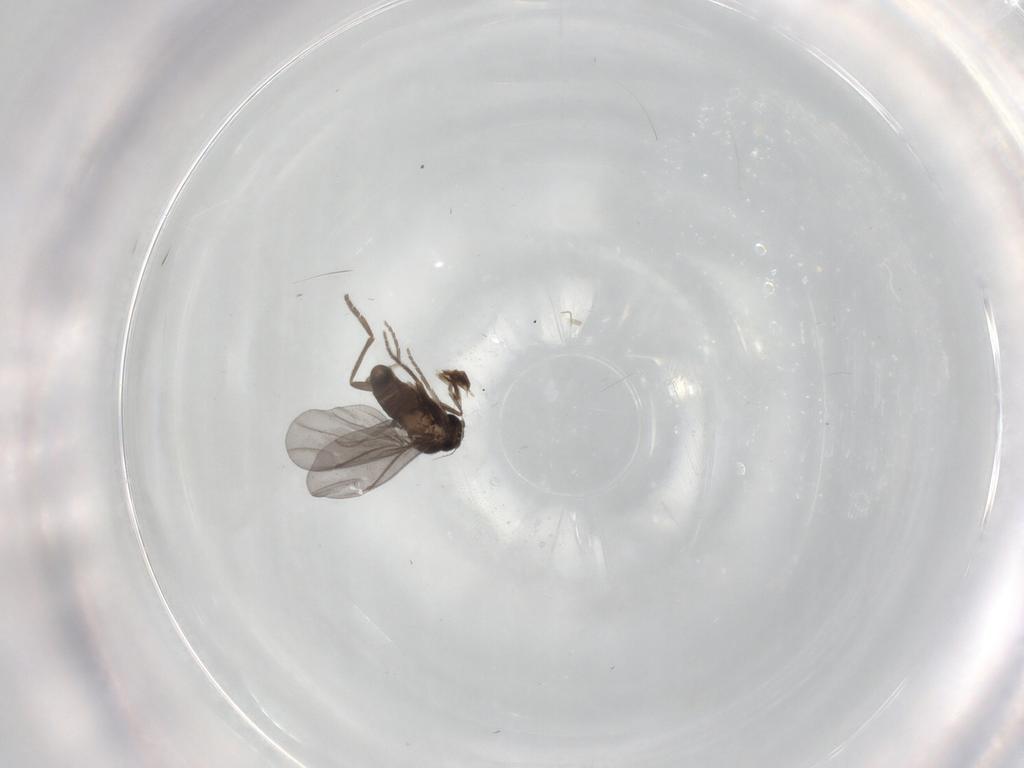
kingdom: Animalia
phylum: Arthropoda
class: Insecta
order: Diptera
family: Phoridae
